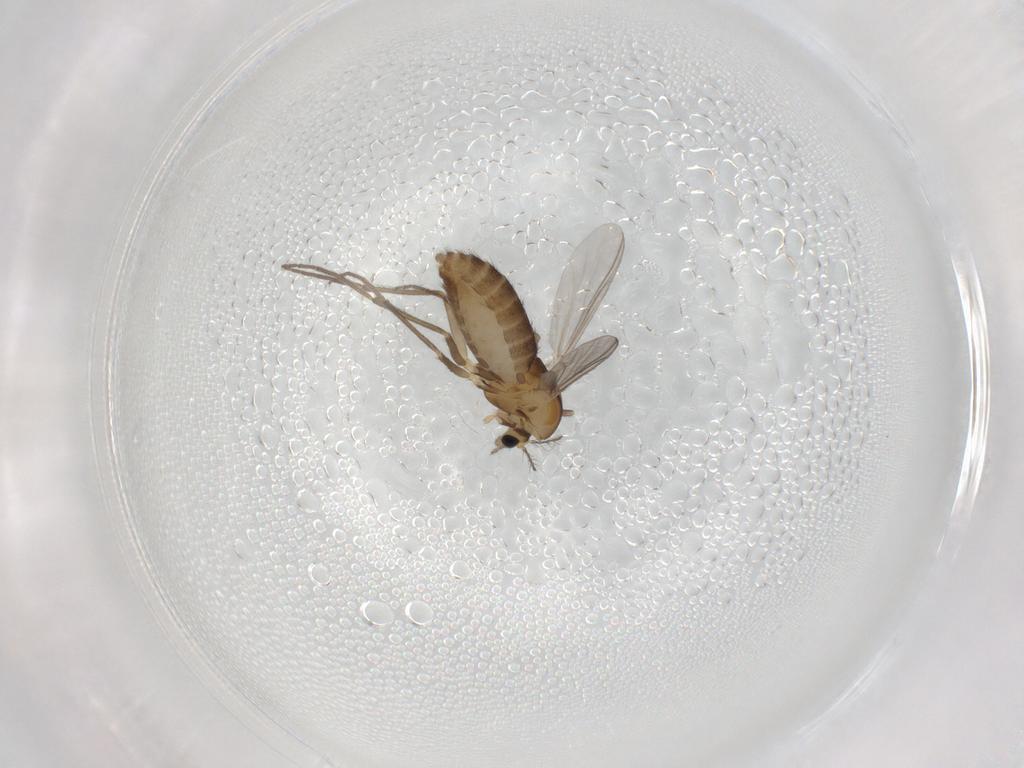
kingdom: Animalia
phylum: Arthropoda
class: Insecta
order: Diptera
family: Chironomidae
